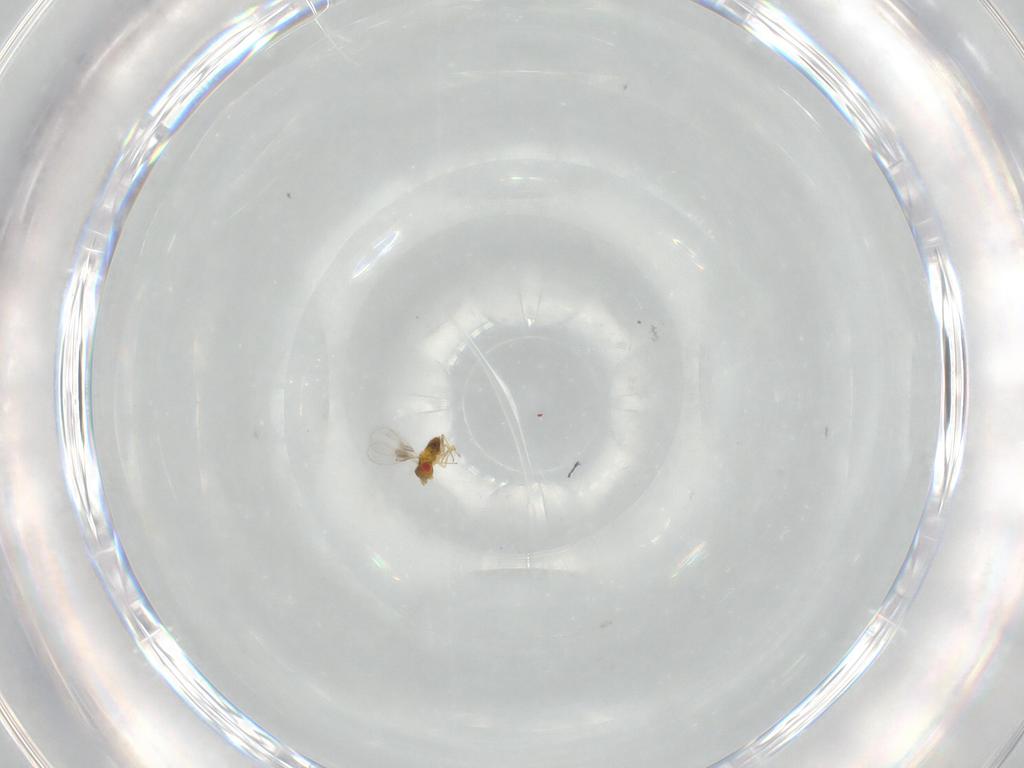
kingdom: Animalia
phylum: Arthropoda
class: Insecta
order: Hymenoptera
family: Trichogrammatidae
